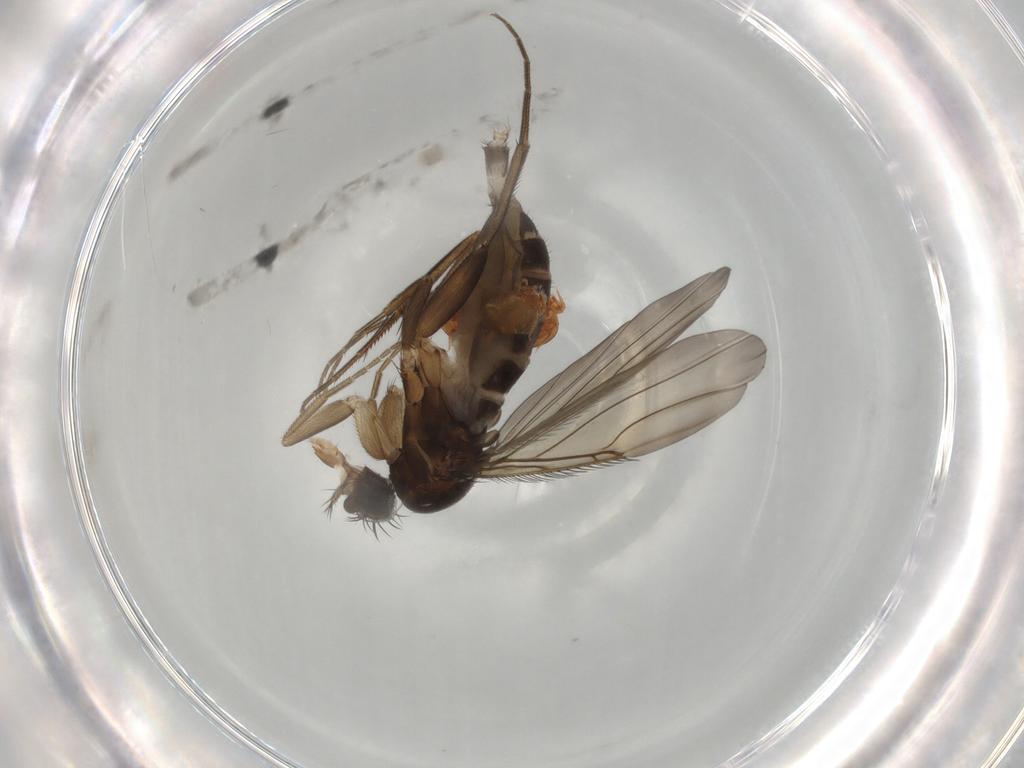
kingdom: Animalia
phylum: Arthropoda
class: Insecta
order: Diptera
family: Phoridae
